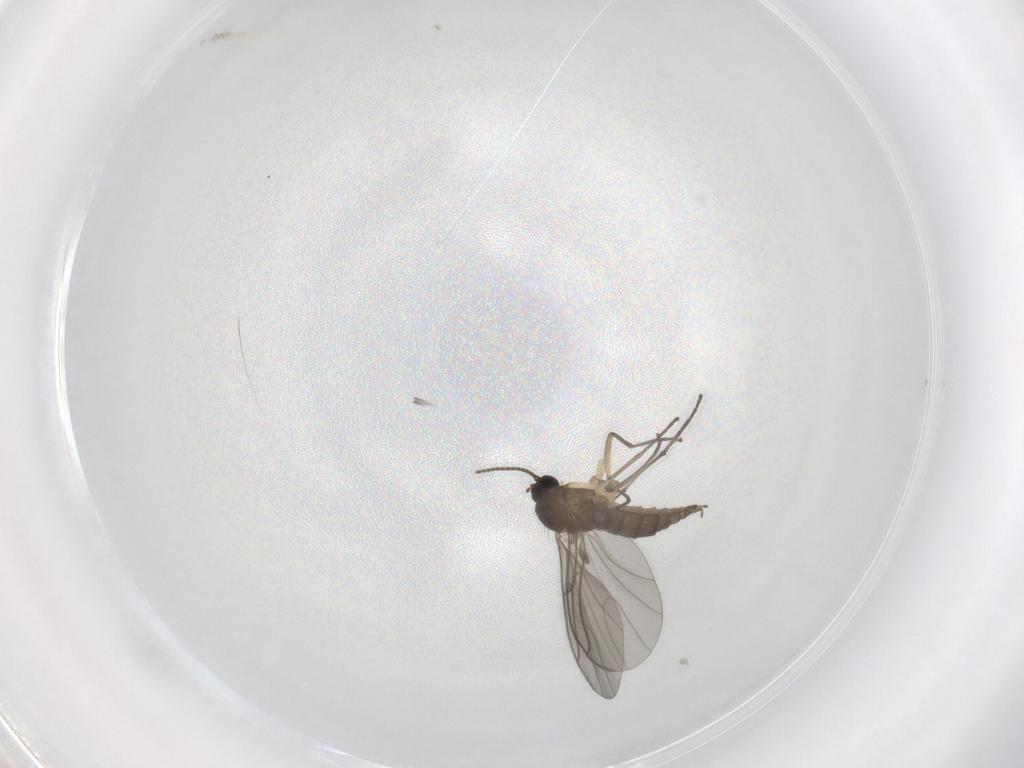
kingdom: Animalia
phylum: Arthropoda
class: Insecta
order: Diptera
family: Sciaridae
